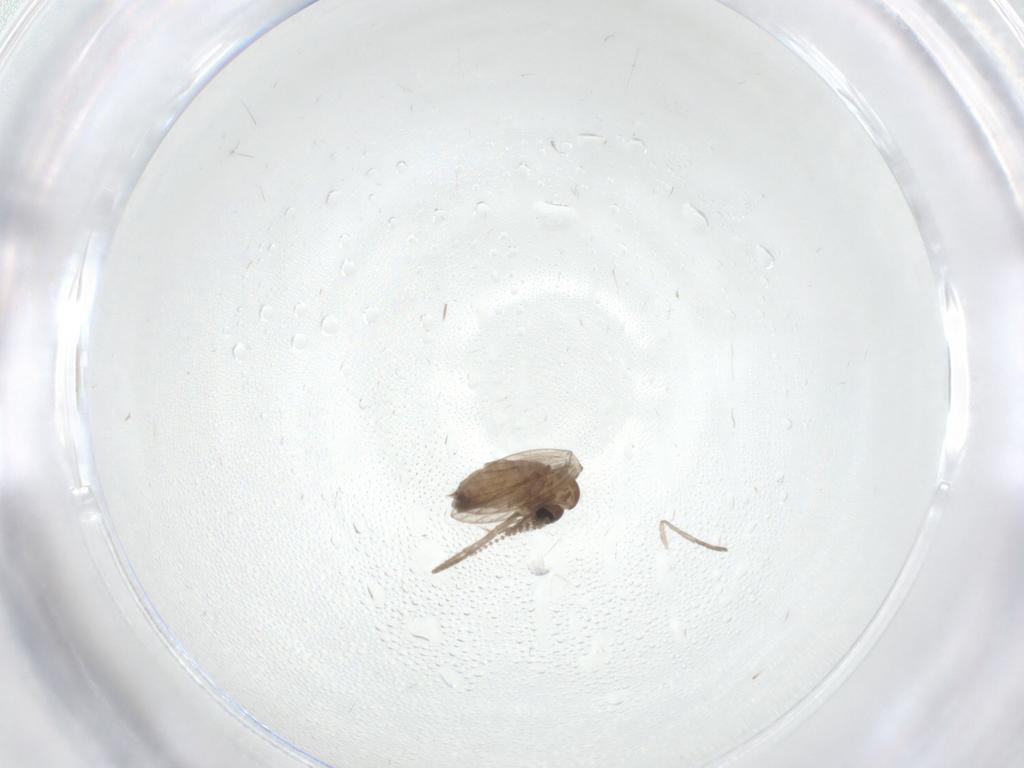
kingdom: Animalia
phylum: Arthropoda
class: Insecta
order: Diptera
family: Psychodidae
